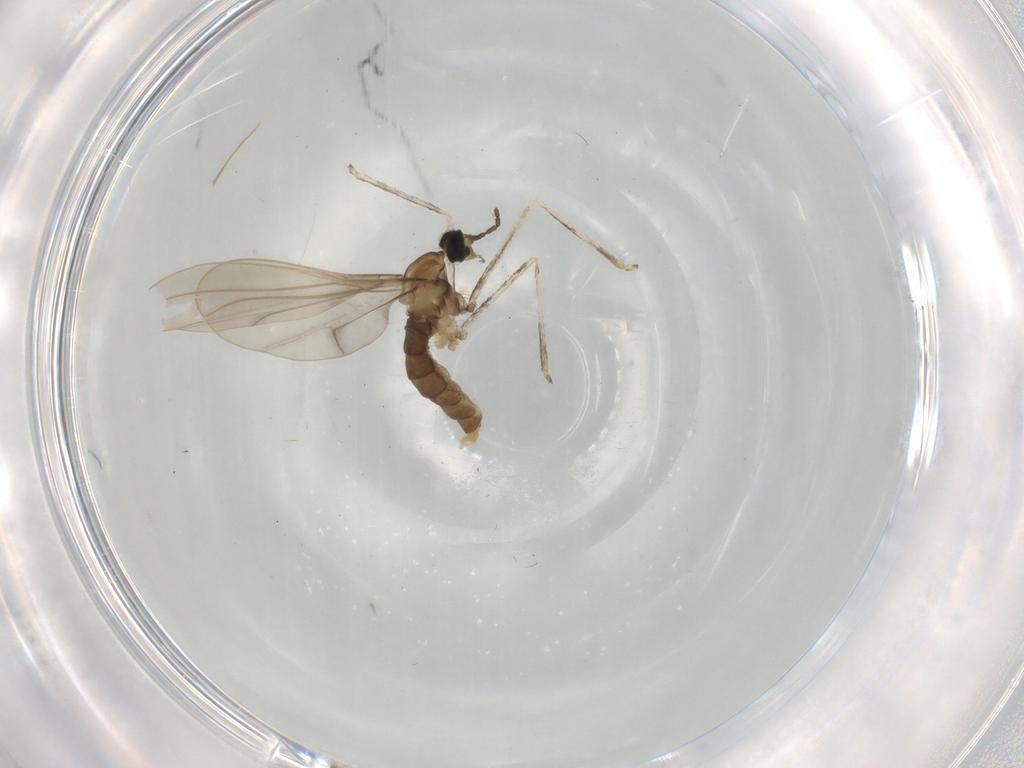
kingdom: Animalia
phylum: Arthropoda
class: Insecta
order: Diptera
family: Cecidomyiidae
